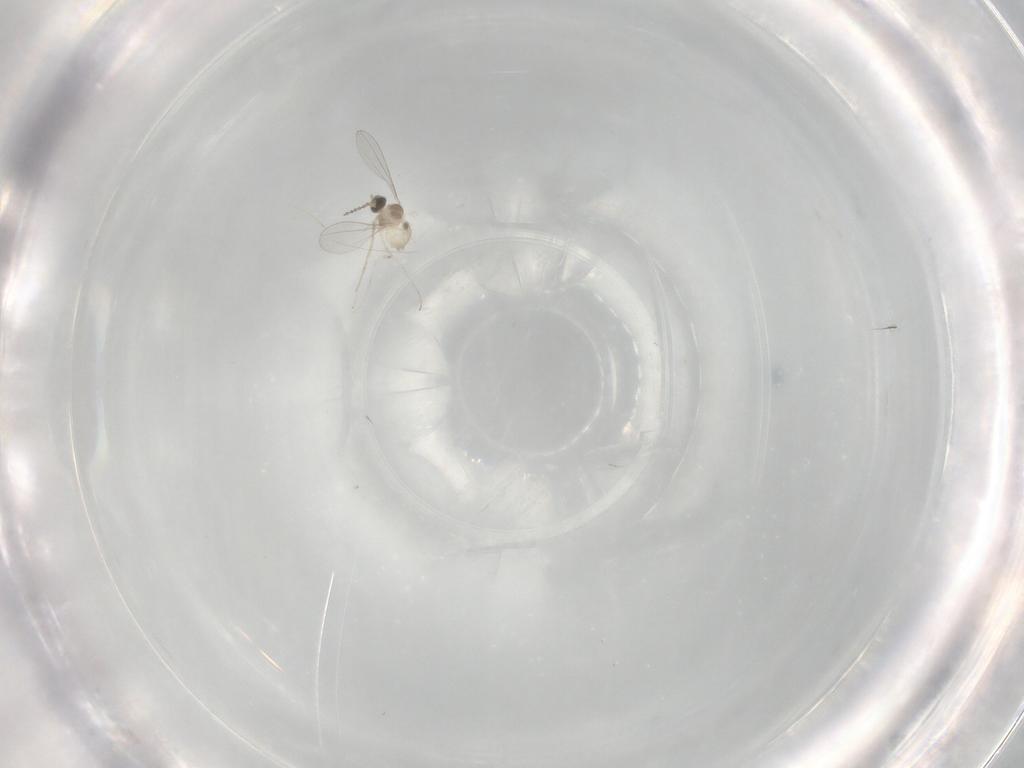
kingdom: Animalia
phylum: Arthropoda
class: Insecta
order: Diptera
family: Cecidomyiidae
